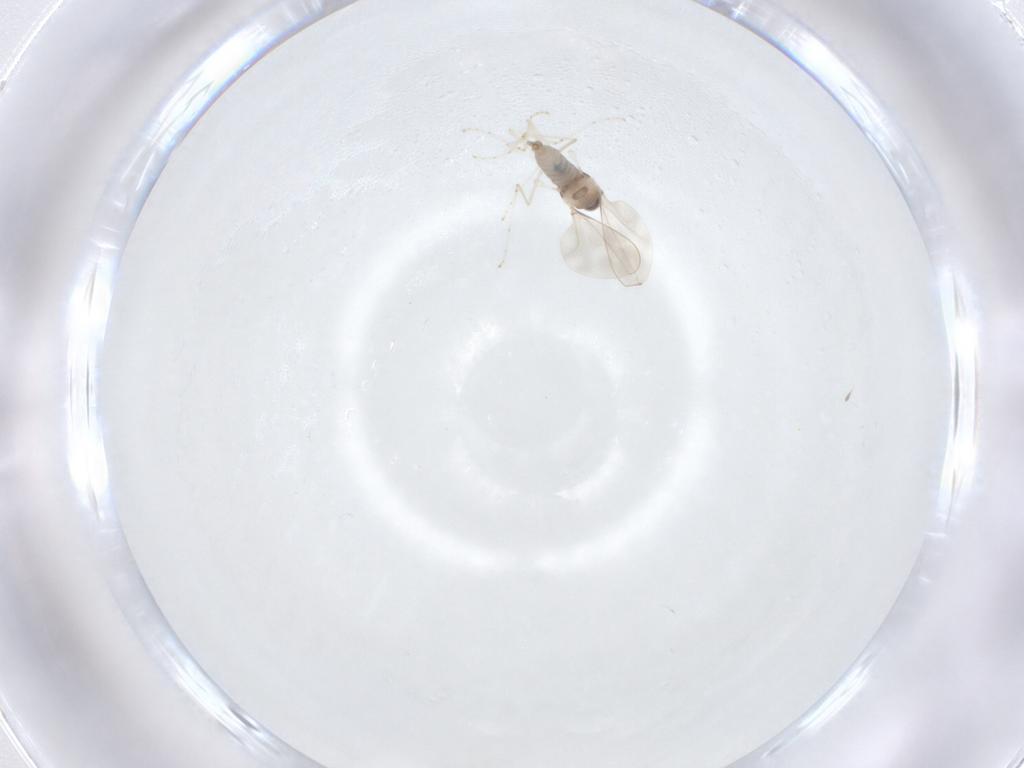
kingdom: Animalia
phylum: Arthropoda
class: Insecta
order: Diptera
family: Cecidomyiidae
